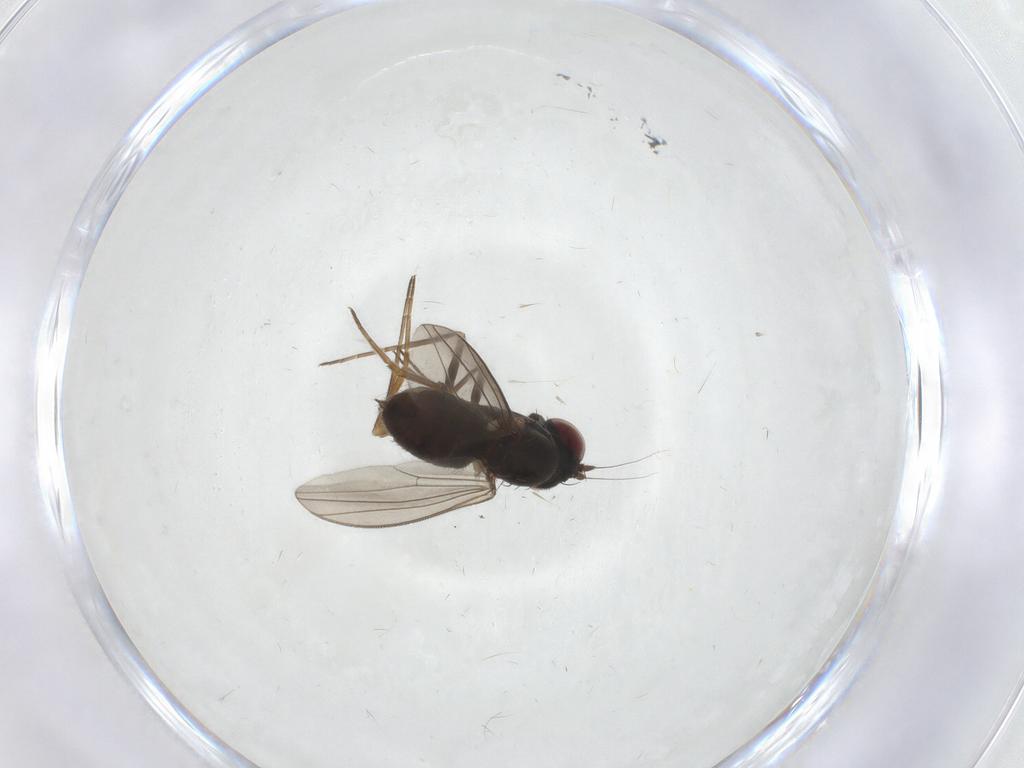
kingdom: Animalia
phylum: Arthropoda
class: Insecta
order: Diptera
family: Dolichopodidae
